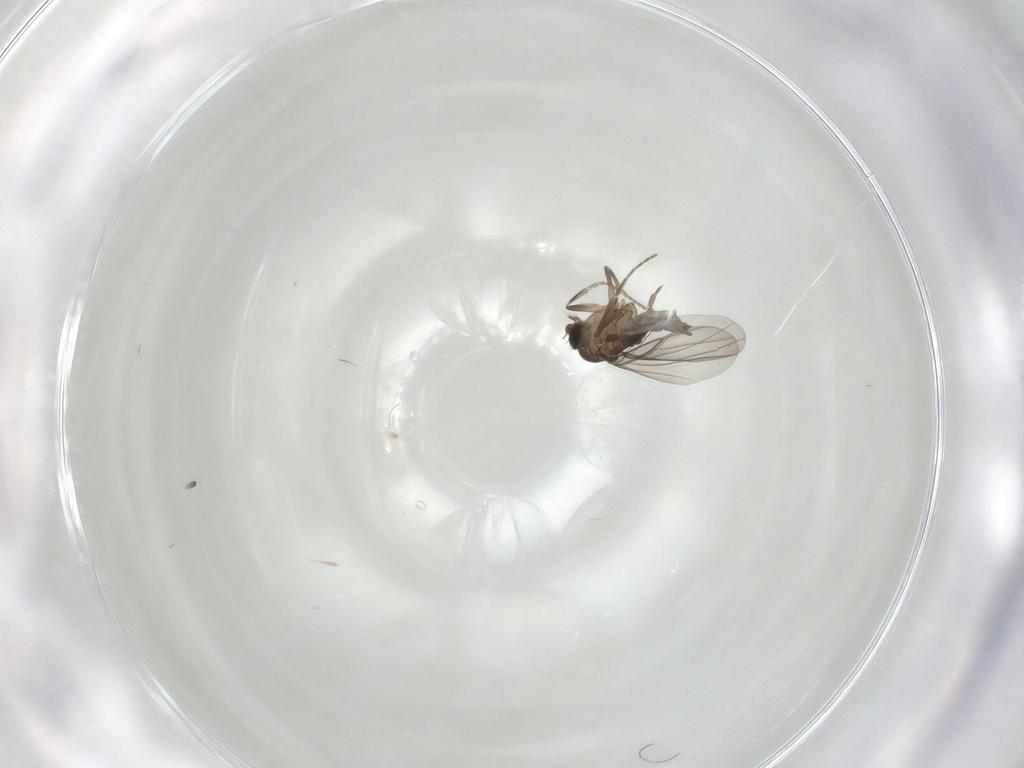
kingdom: Animalia
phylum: Arthropoda
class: Insecta
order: Diptera
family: Phoridae
